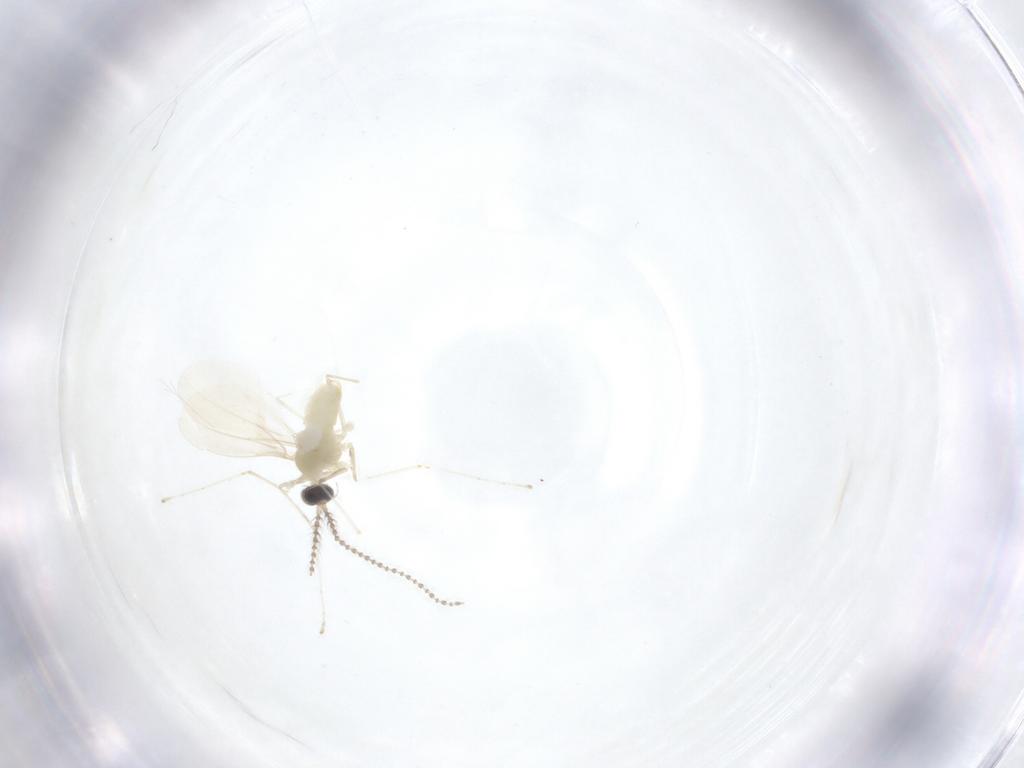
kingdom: Animalia
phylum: Arthropoda
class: Insecta
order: Diptera
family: Cecidomyiidae
